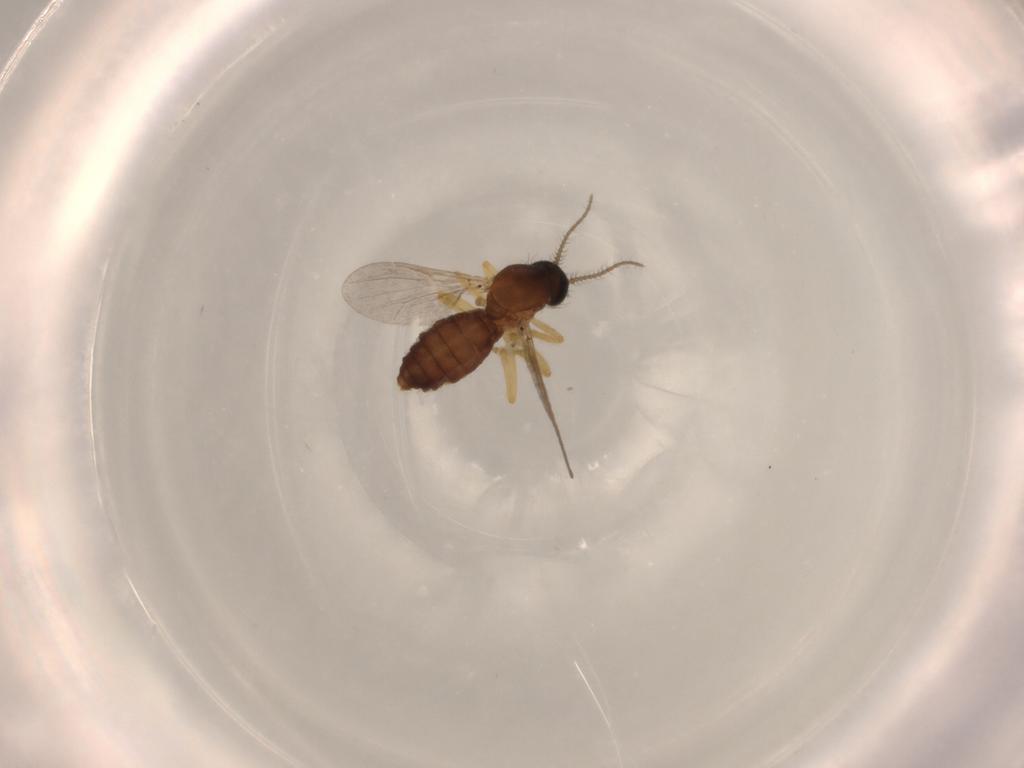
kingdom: Animalia
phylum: Arthropoda
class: Insecta
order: Diptera
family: Ceratopogonidae
